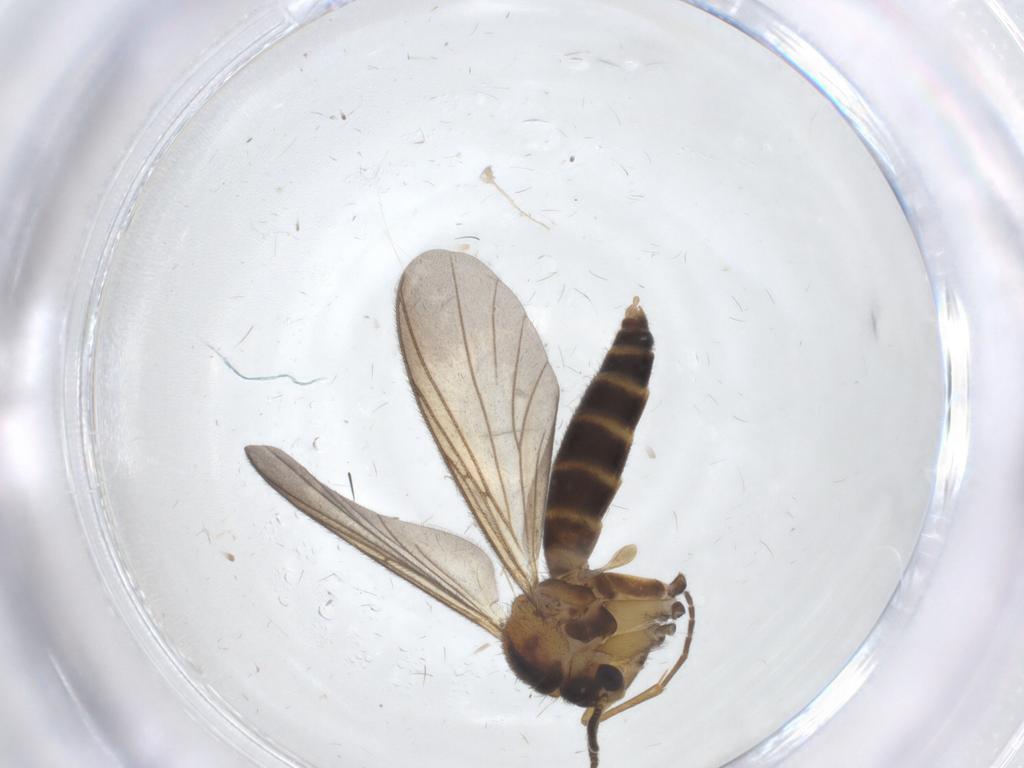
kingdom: Animalia
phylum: Arthropoda
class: Insecta
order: Diptera
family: Mycetophilidae
